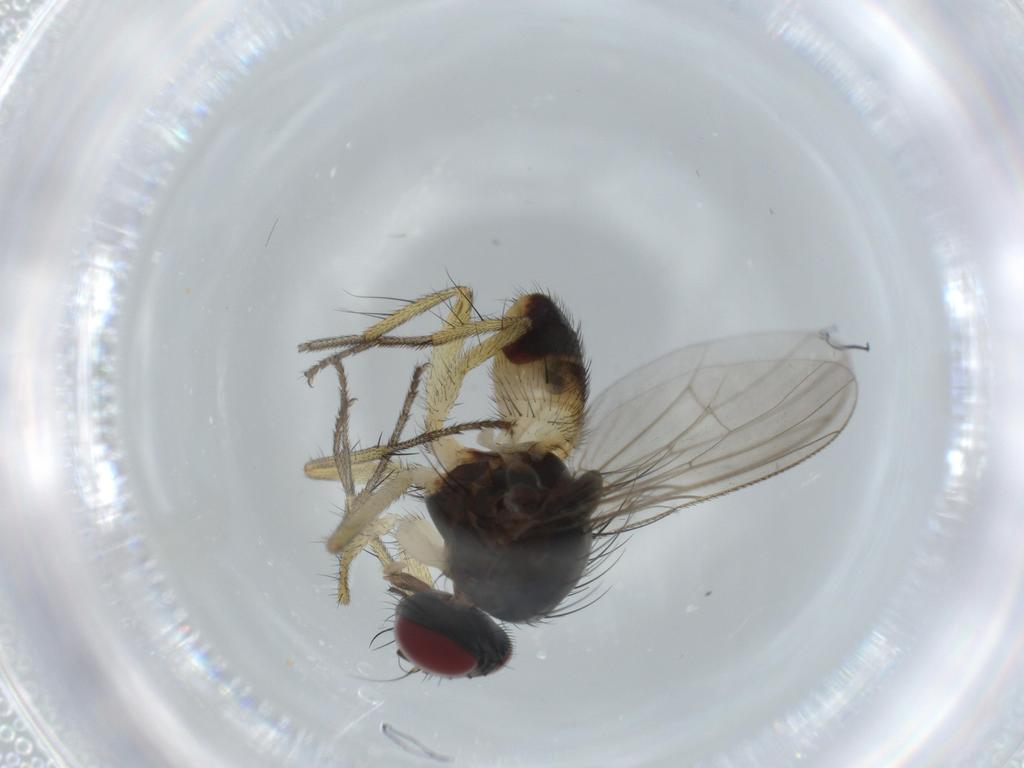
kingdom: Animalia
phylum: Arthropoda
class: Insecta
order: Diptera
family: Muscidae
